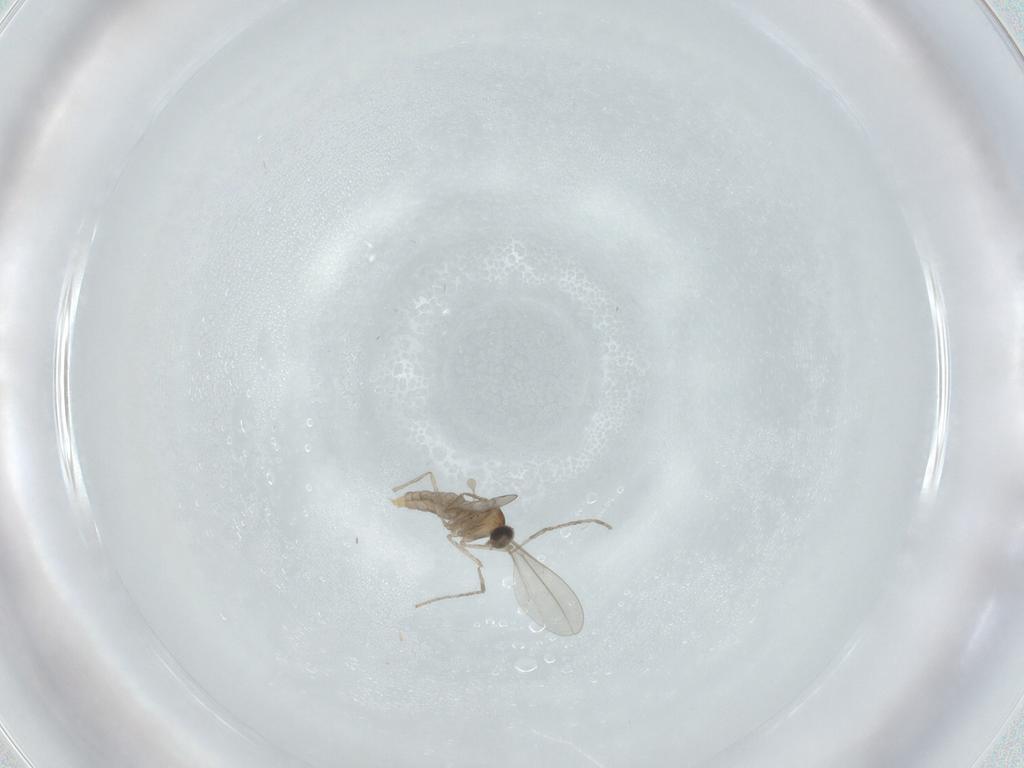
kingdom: Animalia
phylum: Arthropoda
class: Insecta
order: Diptera
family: Cecidomyiidae
